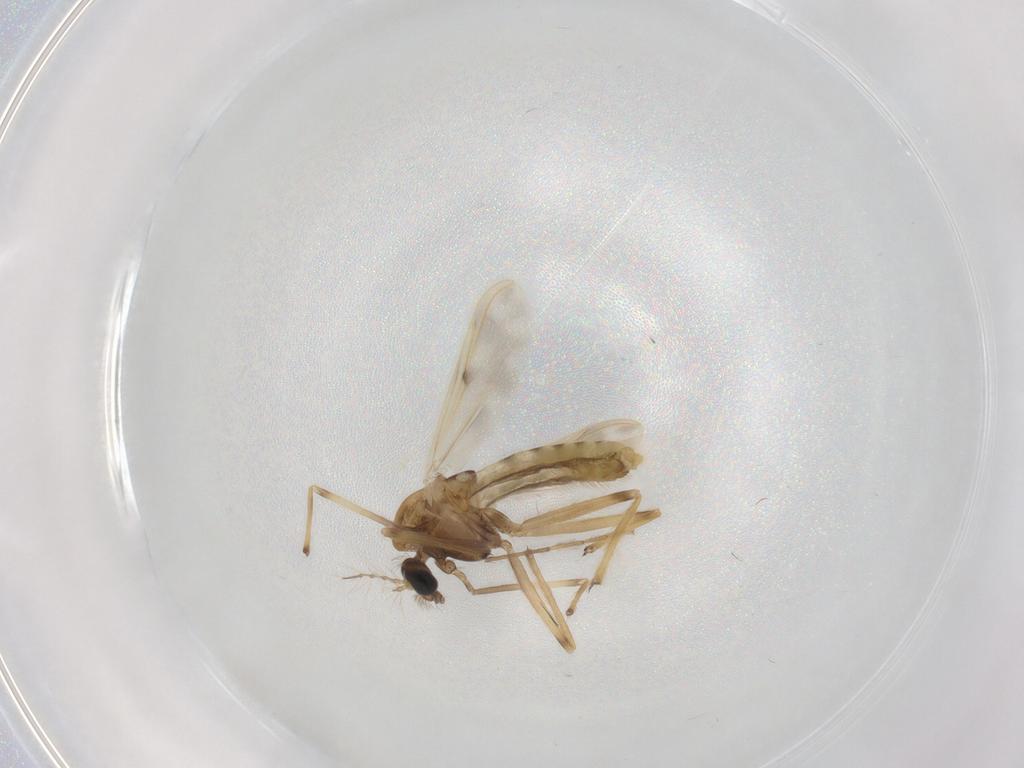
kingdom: Animalia
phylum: Arthropoda
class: Insecta
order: Diptera
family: Chironomidae
